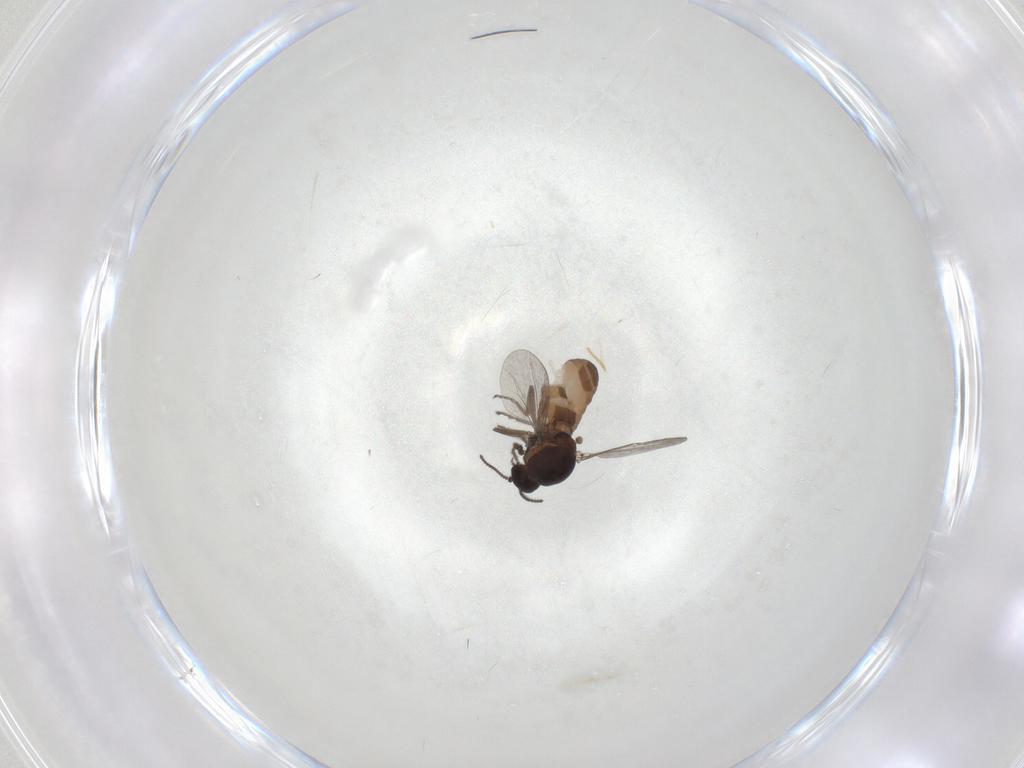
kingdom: Animalia
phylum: Arthropoda
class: Insecta
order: Diptera
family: Ceratopogonidae
